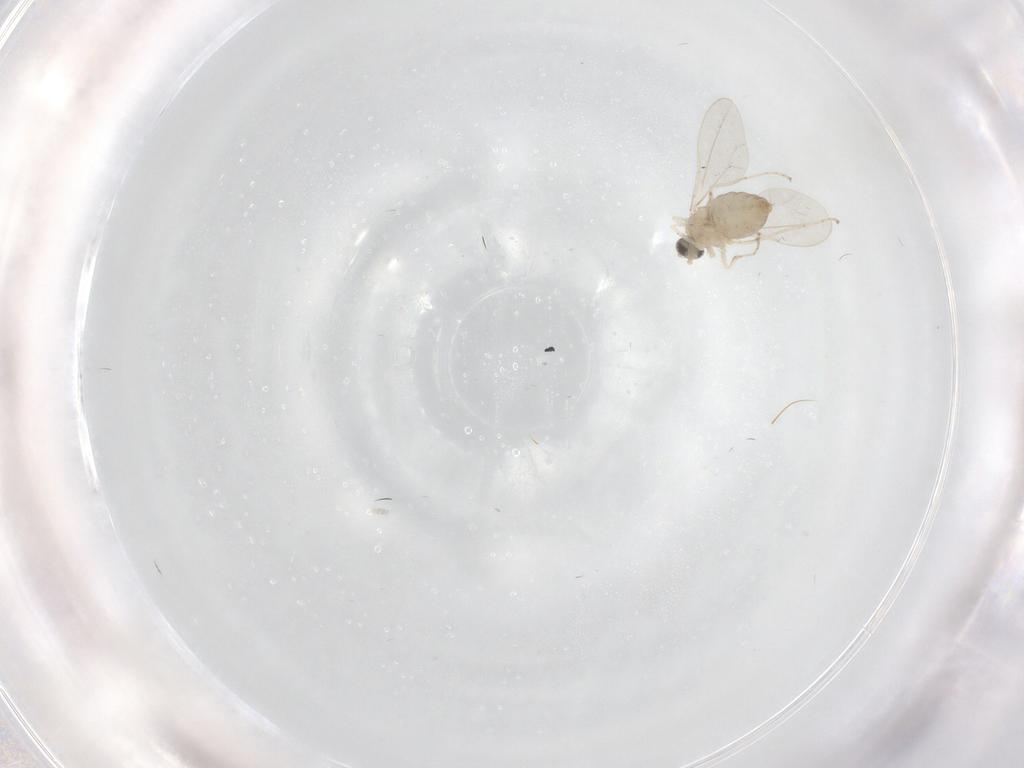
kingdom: Animalia
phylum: Arthropoda
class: Insecta
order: Diptera
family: Cecidomyiidae
